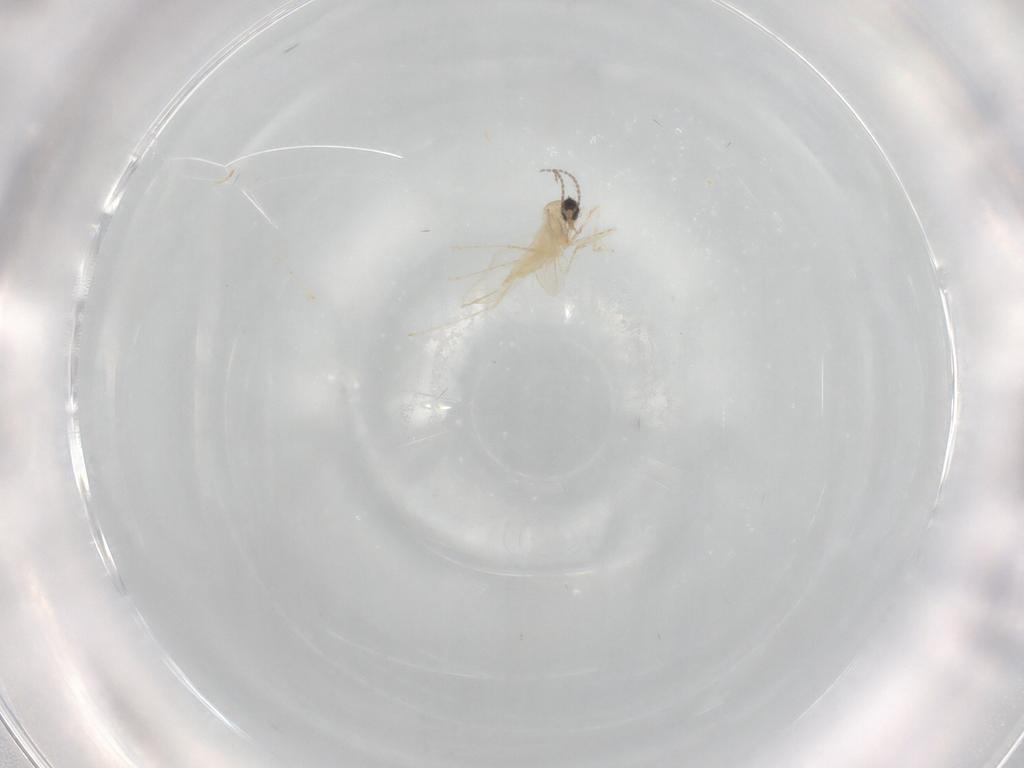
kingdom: Animalia
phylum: Arthropoda
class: Insecta
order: Diptera
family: Cecidomyiidae
